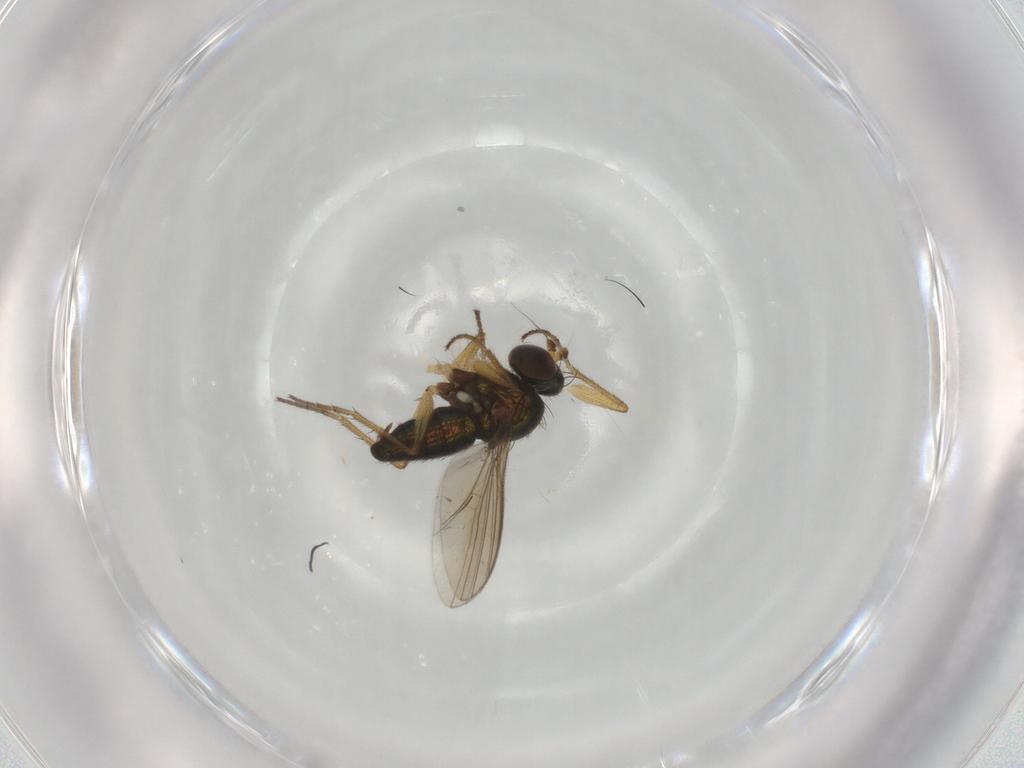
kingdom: Animalia
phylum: Arthropoda
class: Insecta
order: Diptera
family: Dolichopodidae
